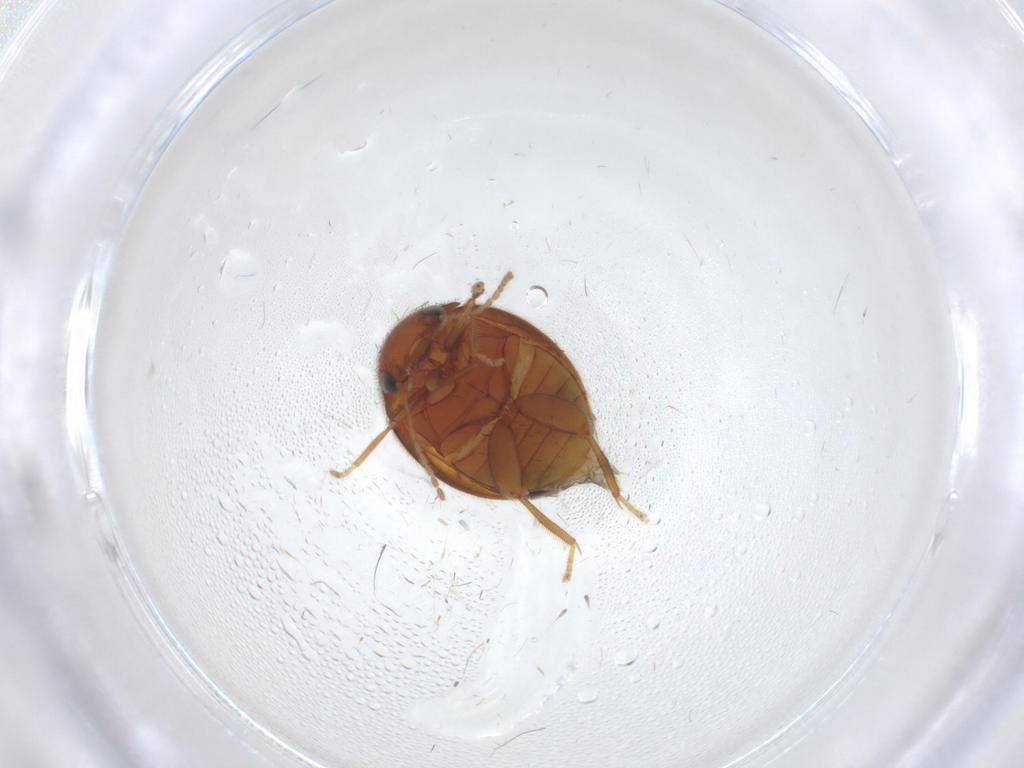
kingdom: Animalia
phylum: Arthropoda
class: Insecta
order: Coleoptera
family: Scirtidae
